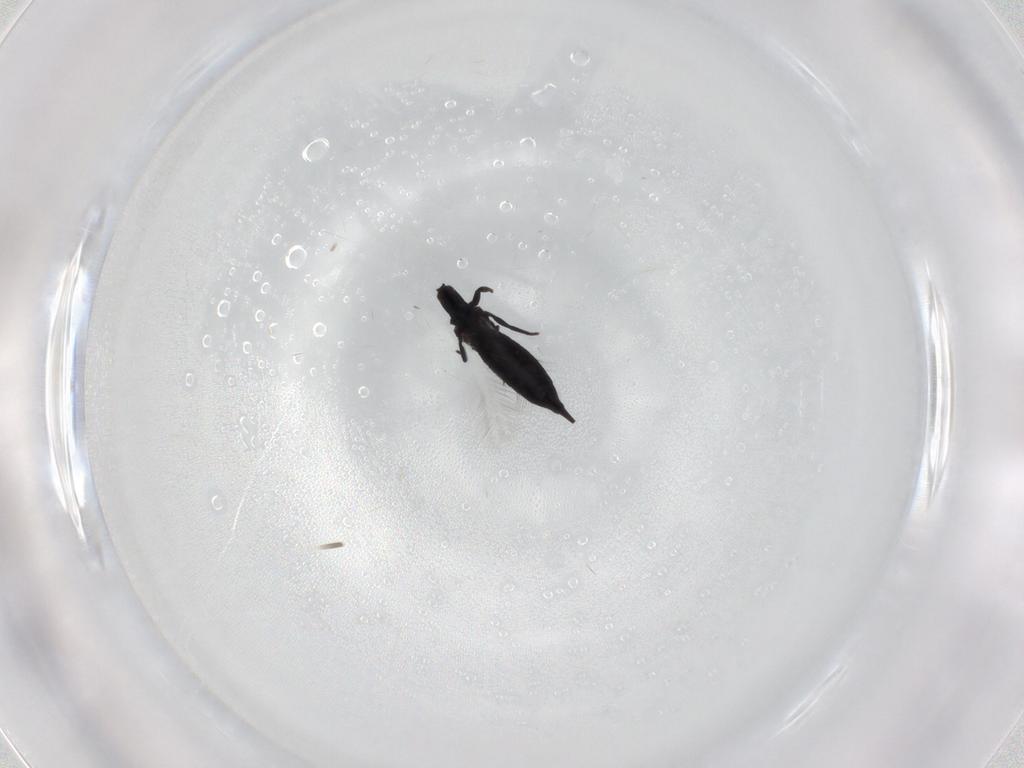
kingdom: Animalia
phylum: Arthropoda
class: Insecta
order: Thysanoptera
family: Phlaeothripidae
